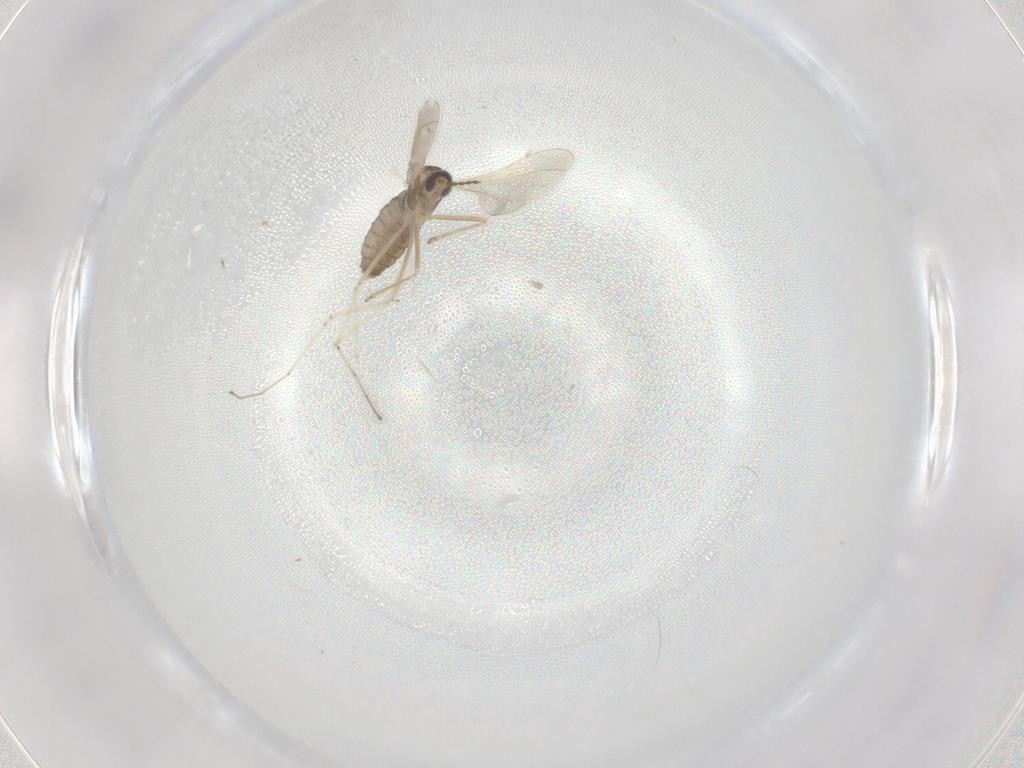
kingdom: Animalia
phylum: Arthropoda
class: Insecta
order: Diptera
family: Cecidomyiidae
